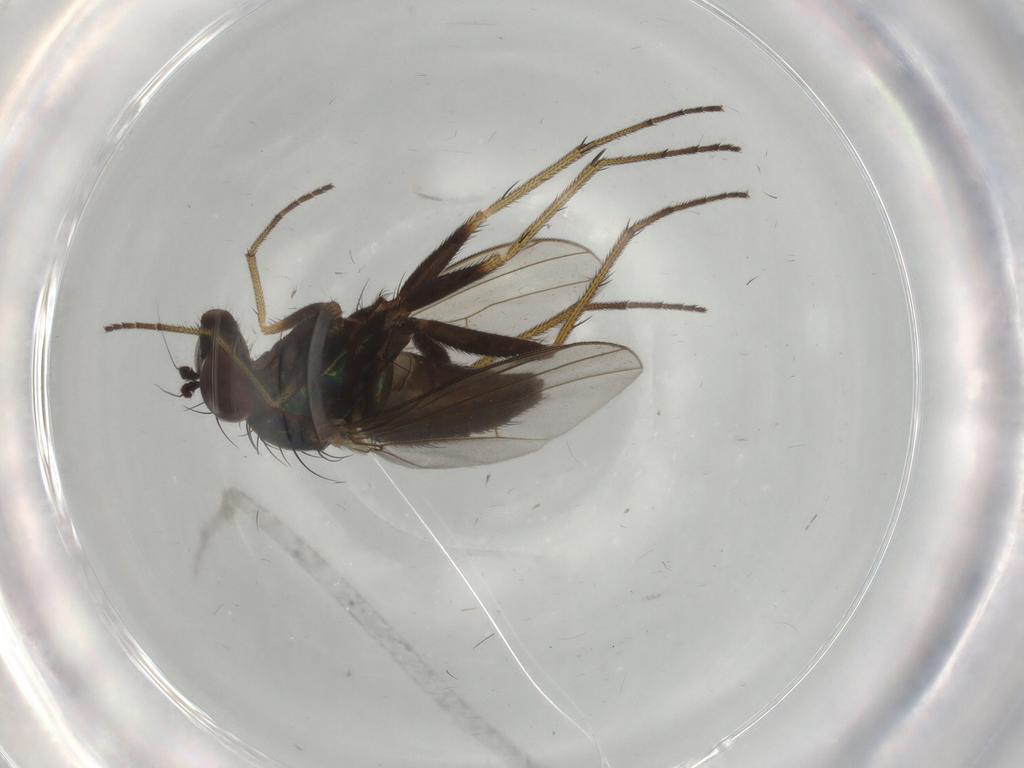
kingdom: Animalia
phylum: Arthropoda
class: Insecta
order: Diptera
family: Dolichopodidae
